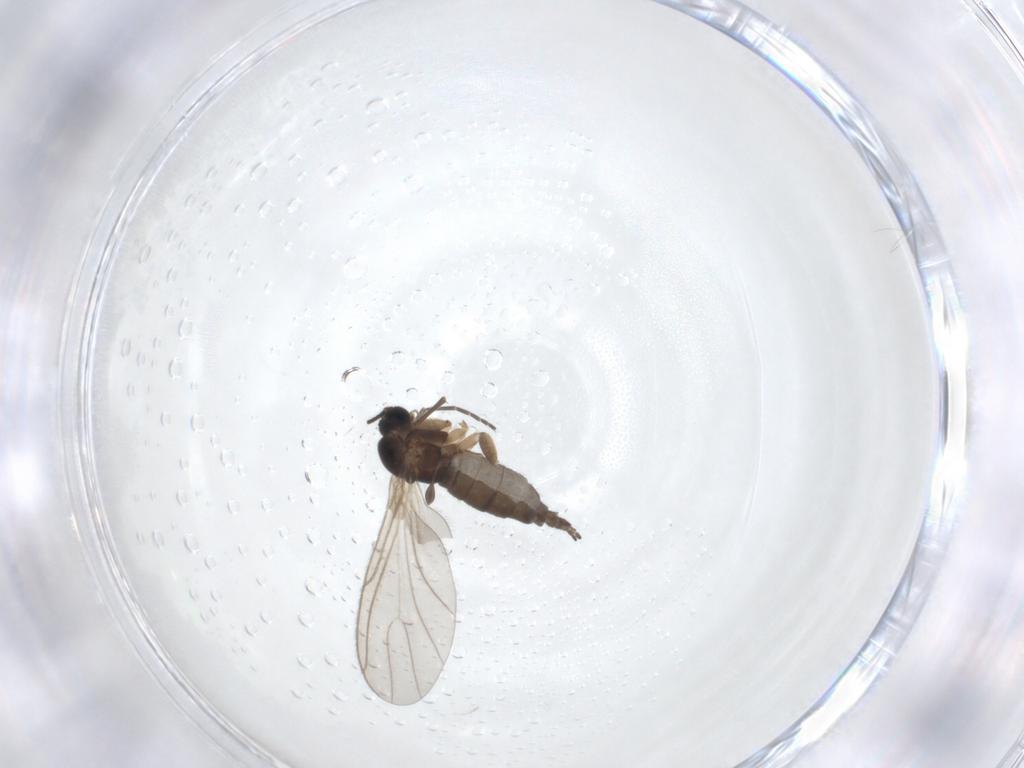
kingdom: Animalia
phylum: Arthropoda
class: Insecta
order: Diptera
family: Sciaridae
